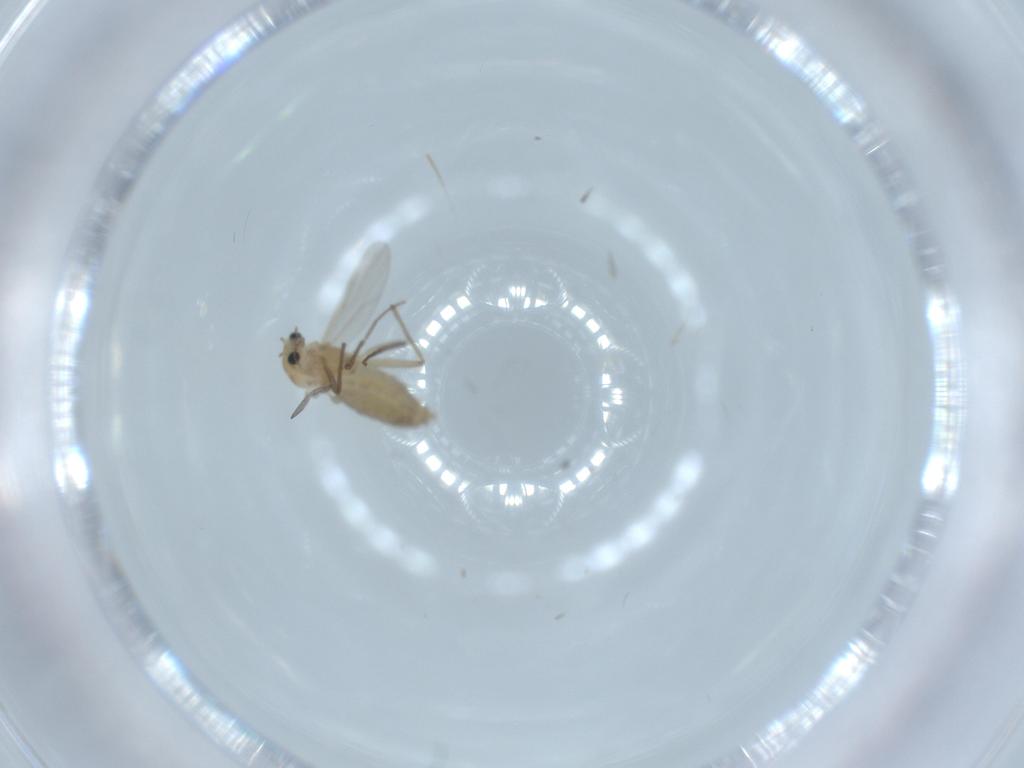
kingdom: Animalia
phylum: Arthropoda
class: Insecta
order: Diptera
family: Chironomidae
